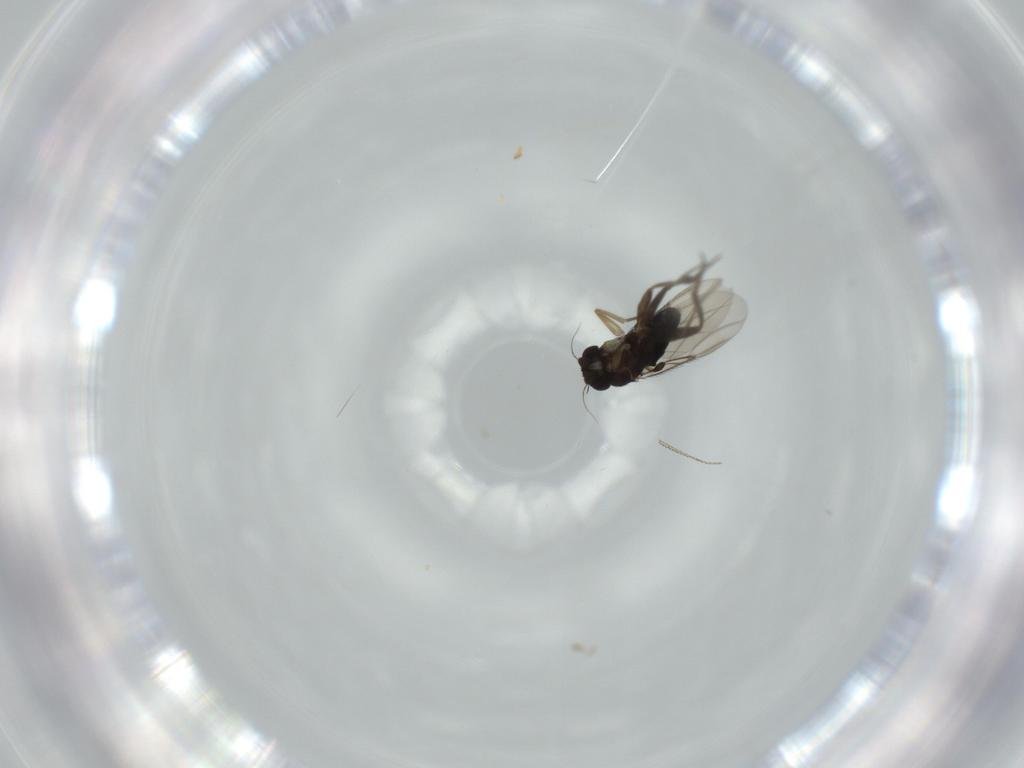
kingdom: Animalia
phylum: Arthropoda
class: Insecta
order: Diptera
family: Phoridae
